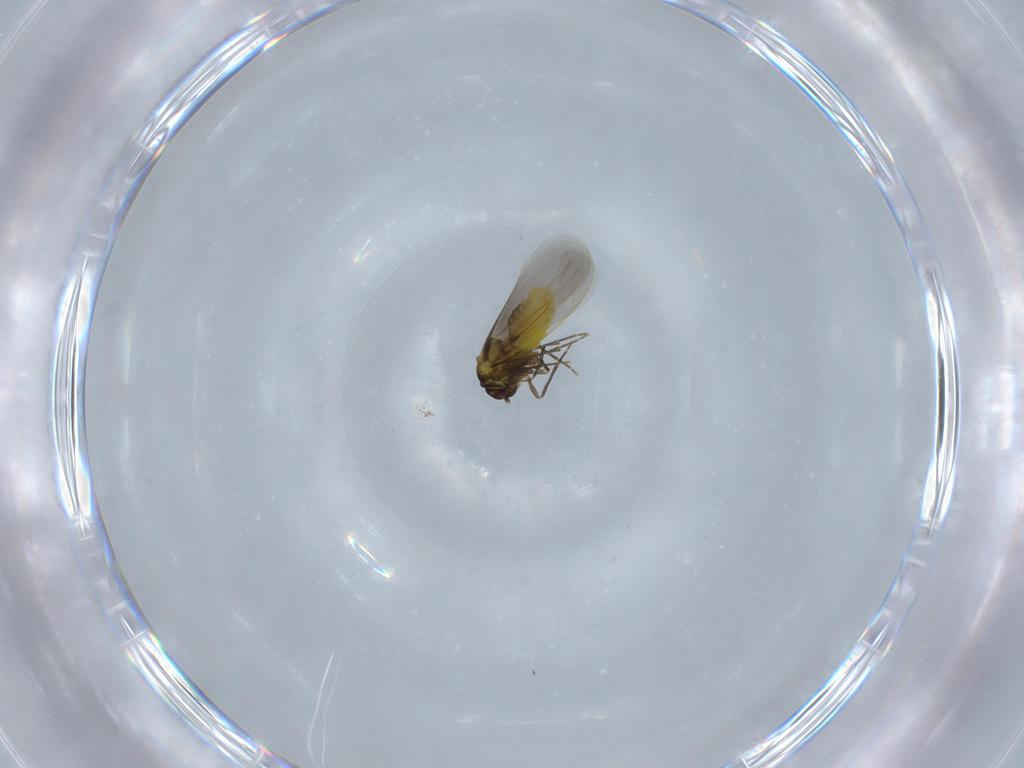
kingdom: Animalia
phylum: Arthropoda
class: Insecta
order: Hemiptera
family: Aleyrodidae
